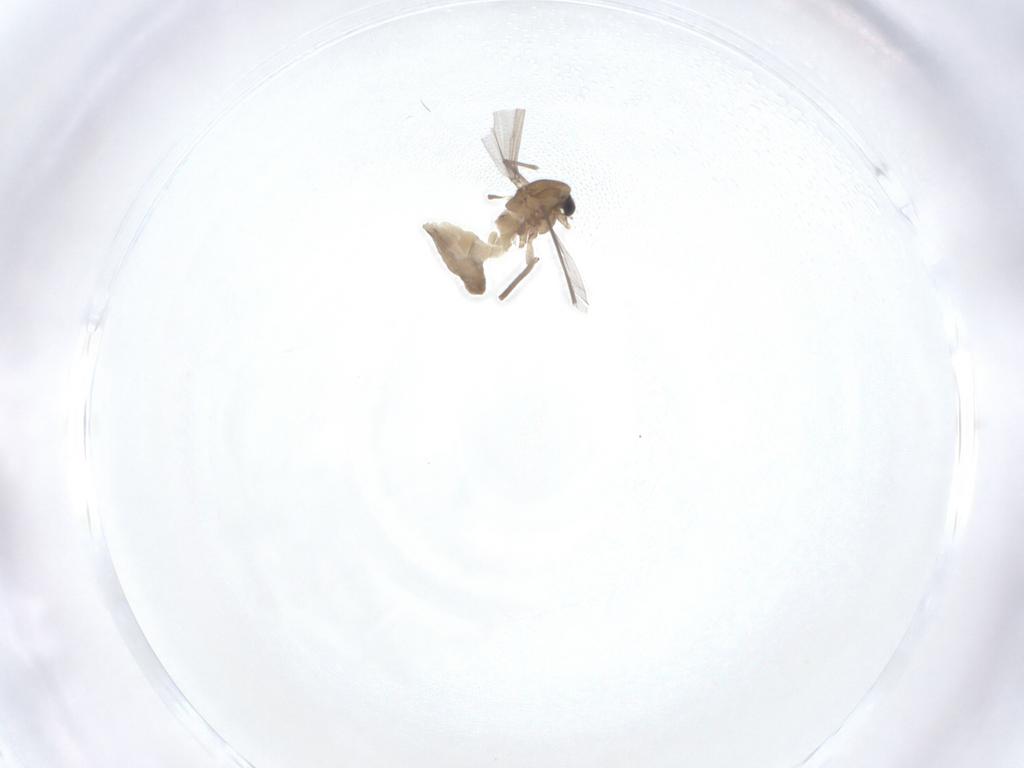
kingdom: Animalia
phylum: Arthropoda
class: Insecta
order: Diptera
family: Chironomidae
